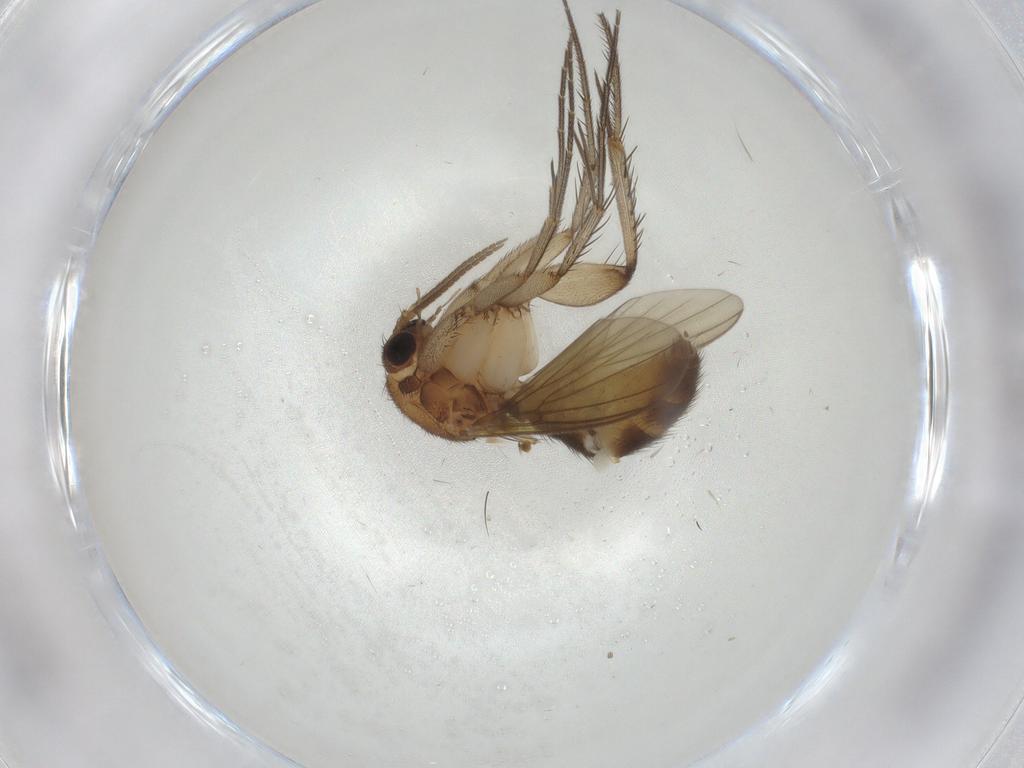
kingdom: Animalia
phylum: Arthropoda
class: Insecta
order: Diptera
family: Mycetophilidae
